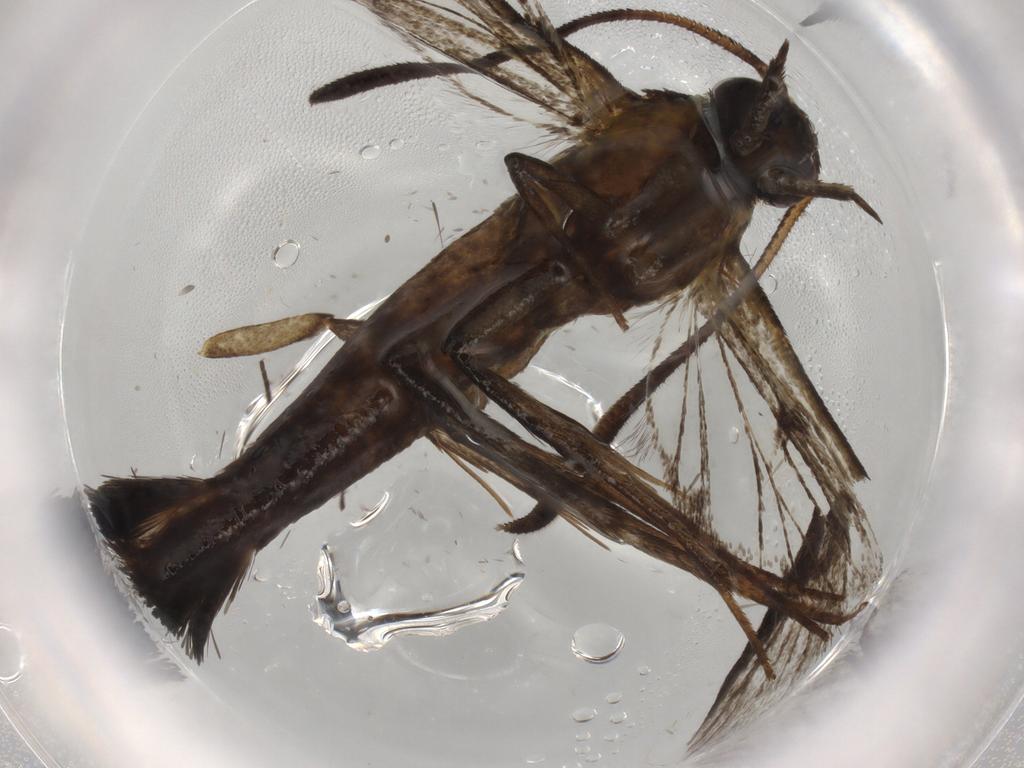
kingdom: Animalia
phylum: Arthropoda
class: Insecta
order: Lepidoptera
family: Sesiidae
